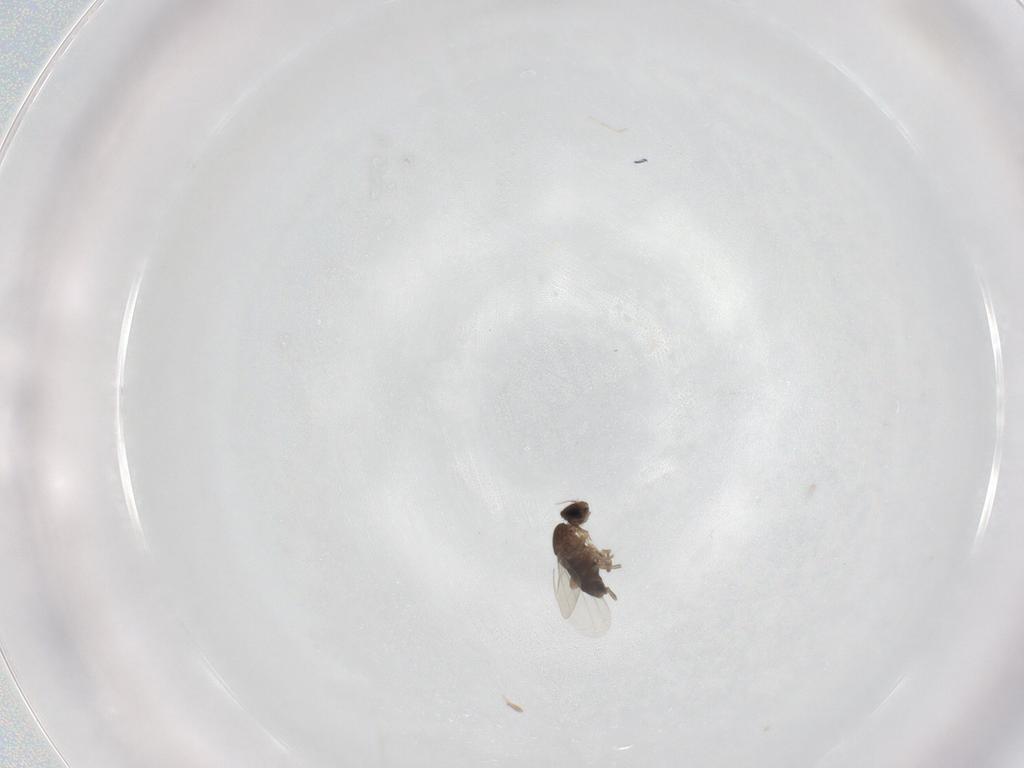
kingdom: Animalia
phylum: Arthropoda
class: Insecta
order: Diptera
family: Phoridae
